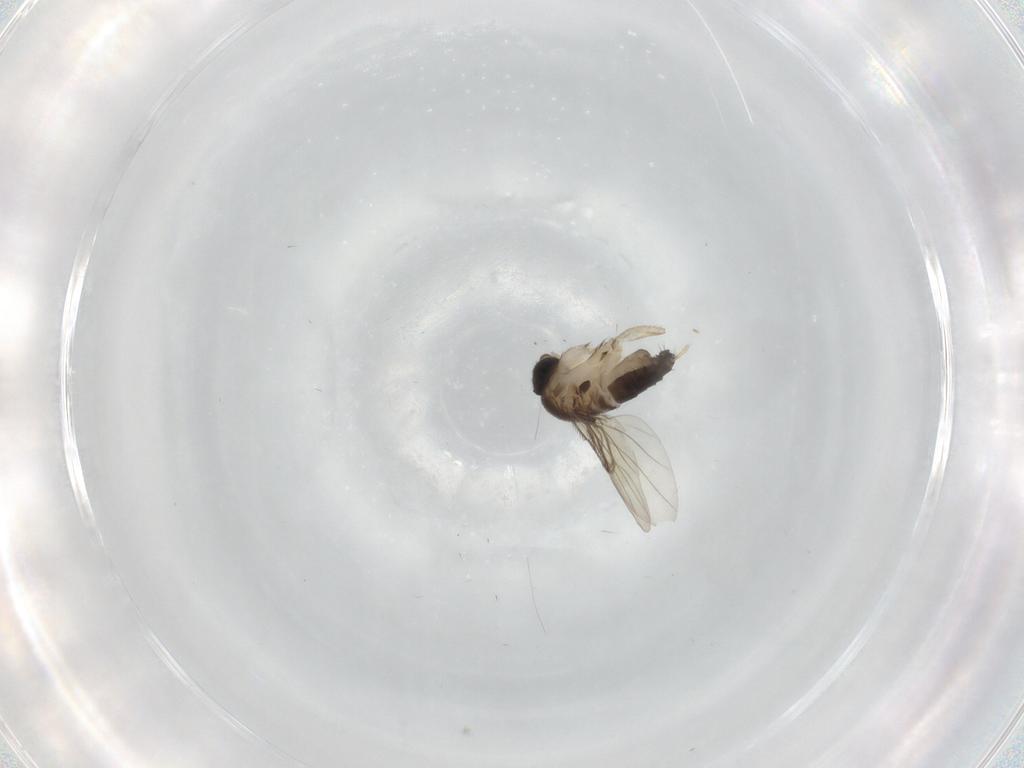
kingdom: Animalia
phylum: Arthropoda
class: Insecta
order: Diptera
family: Phoridae
